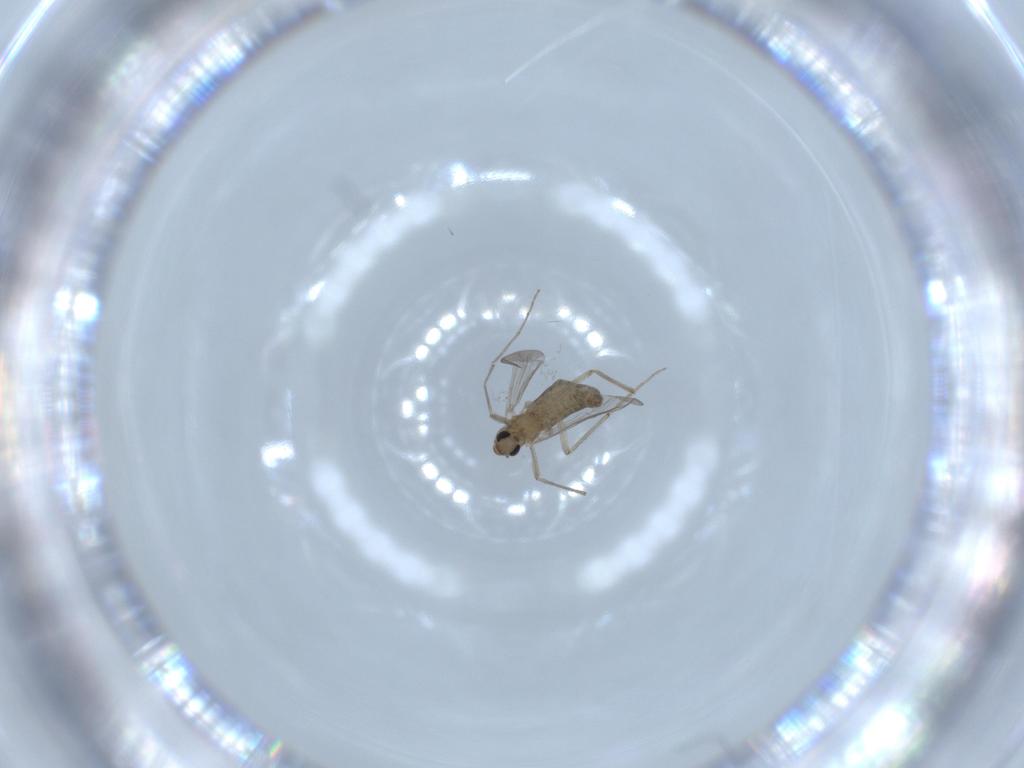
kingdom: Animalia
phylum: Arthropoda
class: Insecta
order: Diptera
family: Chironomidae
